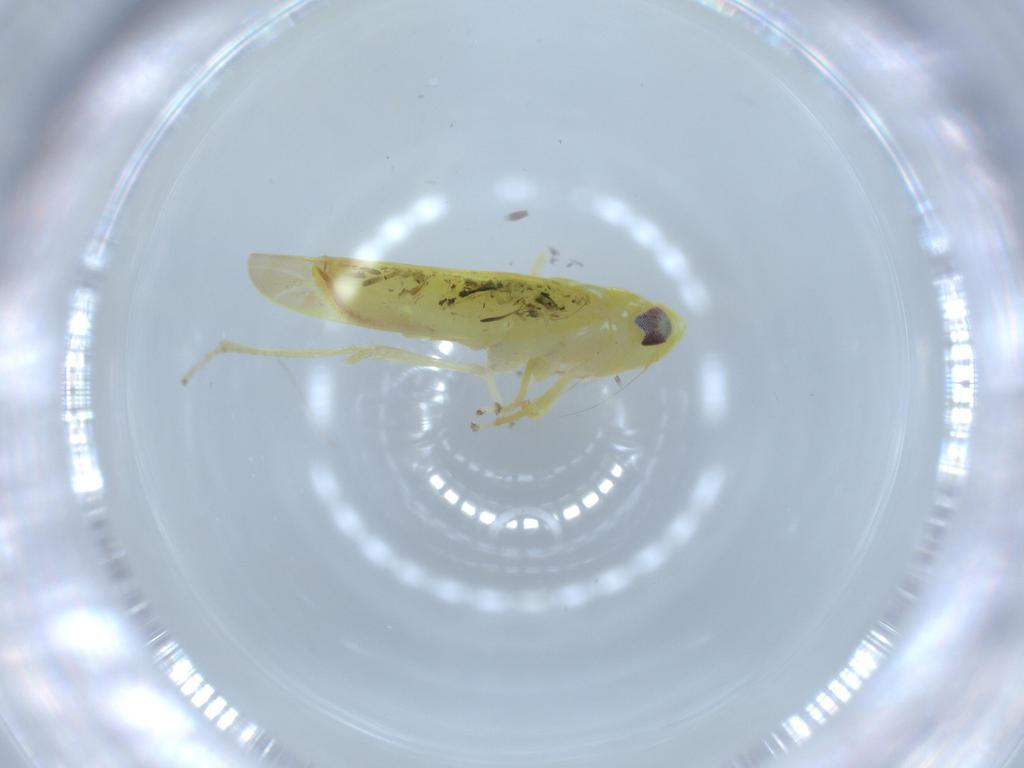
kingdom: Animalia
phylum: Arthropoda
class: Insecta
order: Hemiptera
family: Cicadellidae
